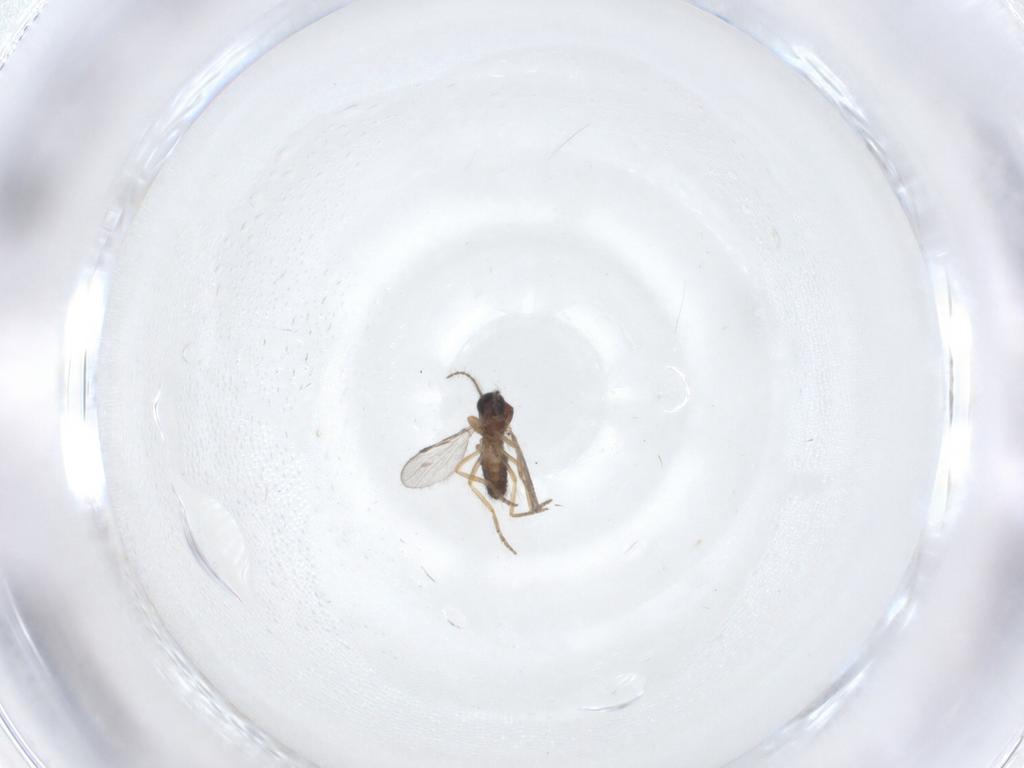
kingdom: Animalia
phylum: Arthropoda
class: Insecta
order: Diptera
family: Ceratopogonidae
